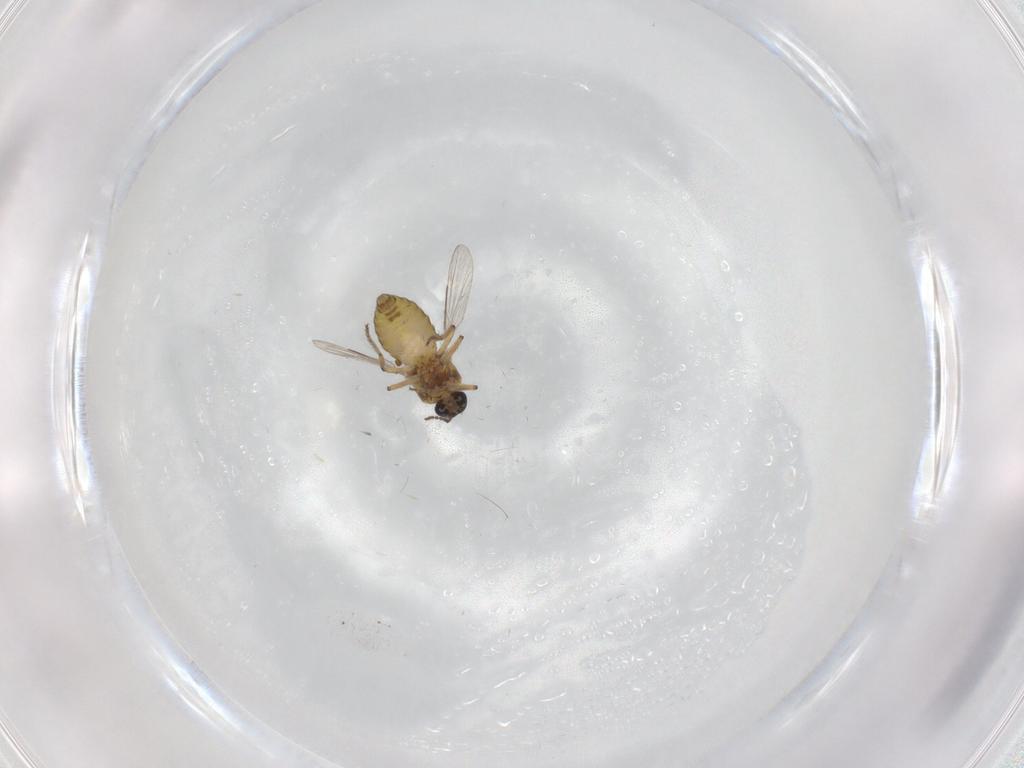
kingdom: Animalia
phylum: Arthropoda
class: Insecta
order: Diptera
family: Ceratopogonidae
